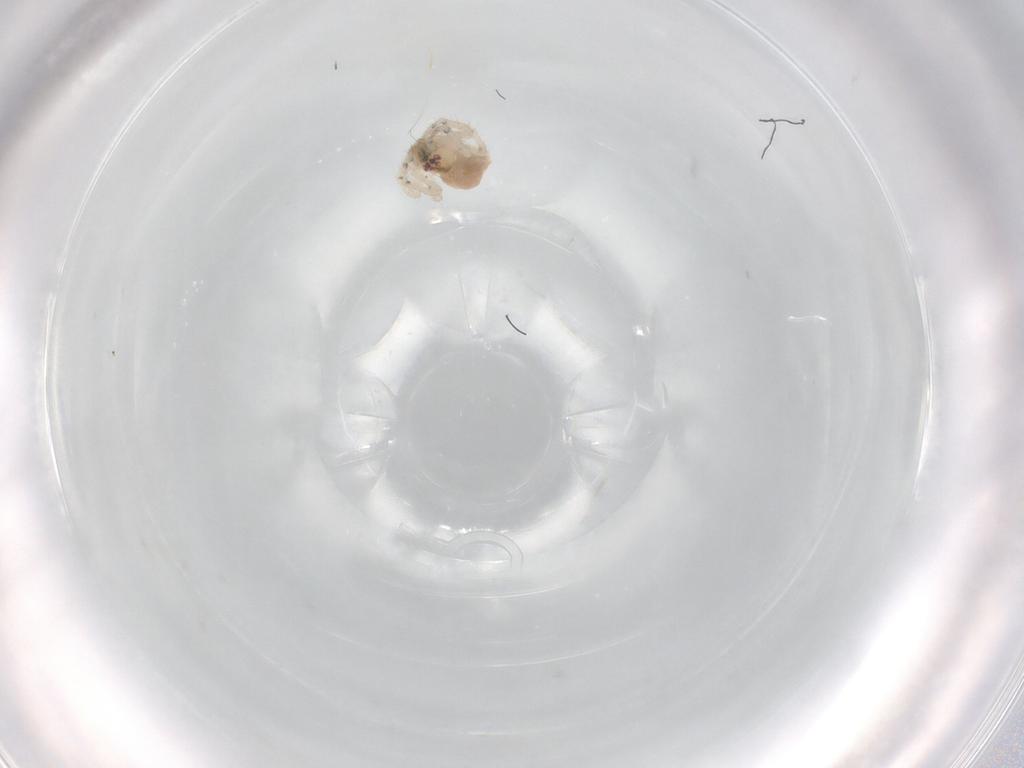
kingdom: Animalia
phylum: Arthropoda
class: Arachnida
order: Araneae
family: Theridiidae
